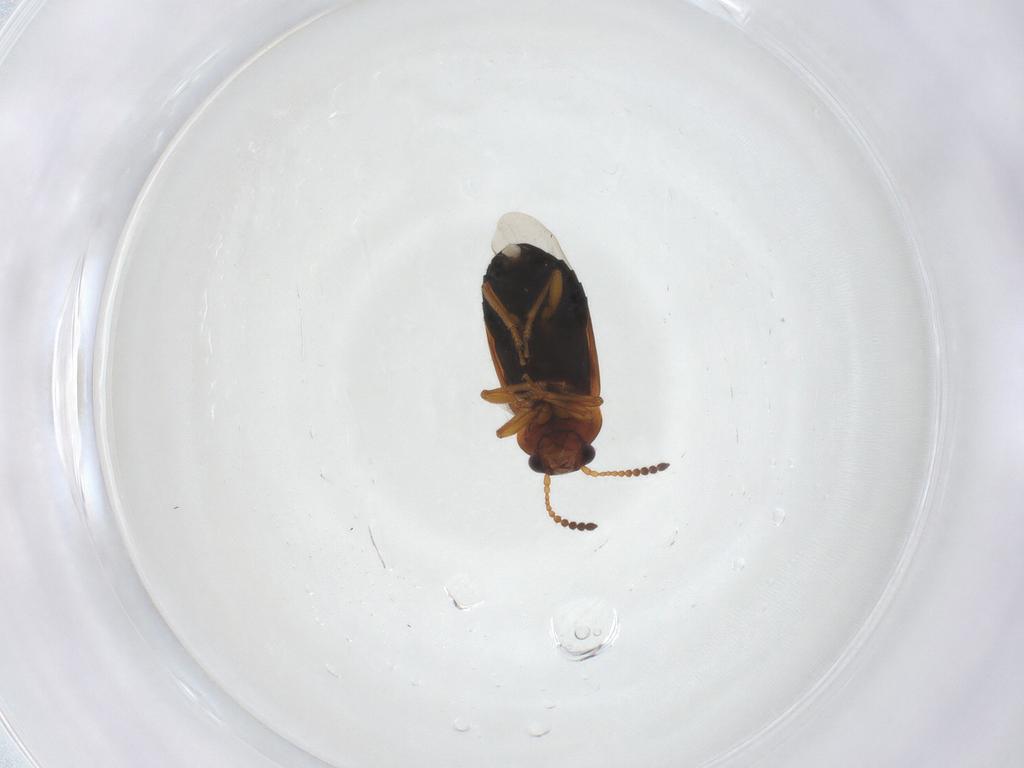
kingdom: Animalia
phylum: Arthropoda
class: Insecta
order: Coleoptera
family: Staphylinidae
